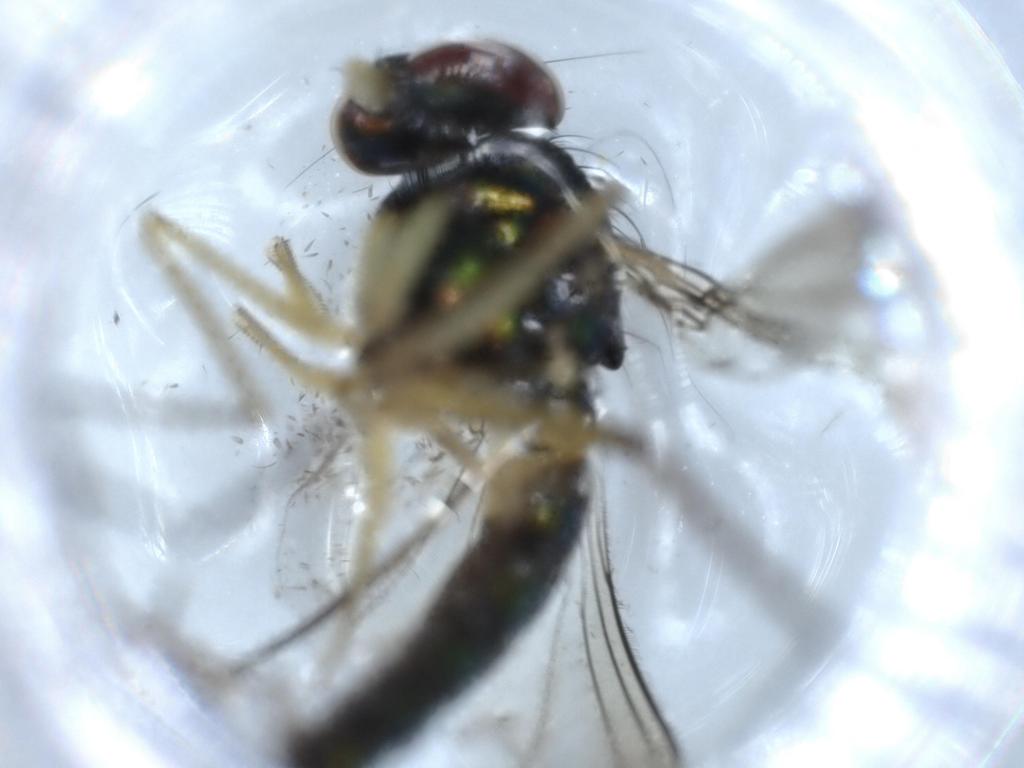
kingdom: Animalia
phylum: Arthropoda
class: Insecta
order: Diptera
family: Dolichopodidae
